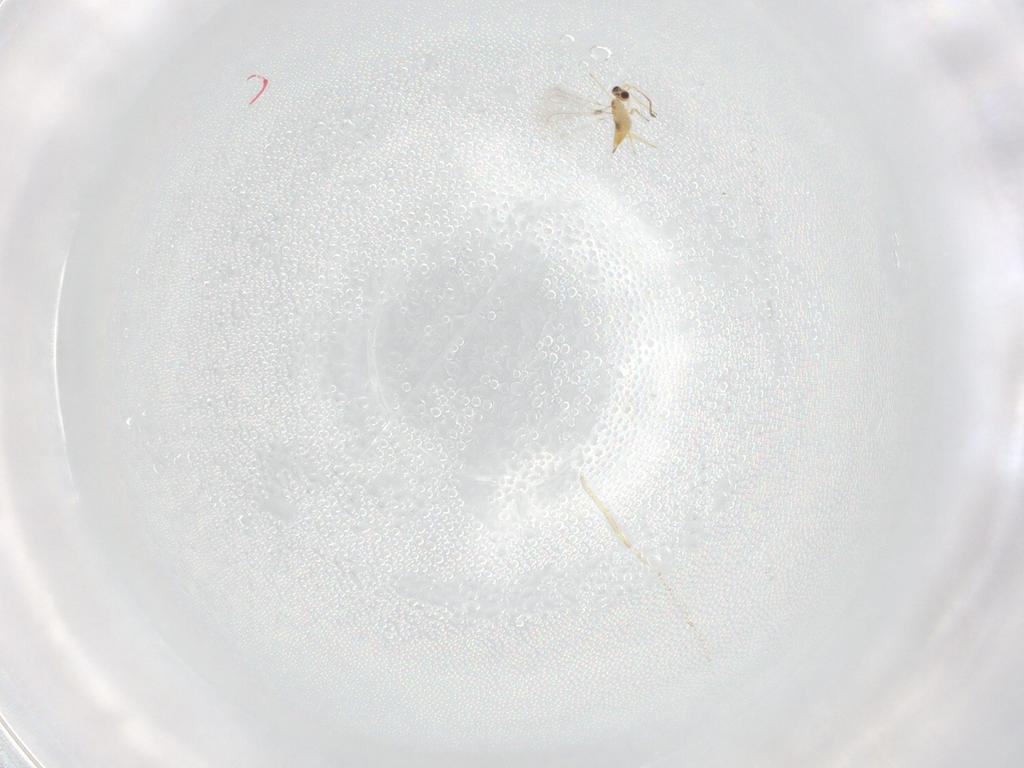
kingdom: Animalia
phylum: Arthropoda
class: Insecta
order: Hymenoptera
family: Mymaridae
